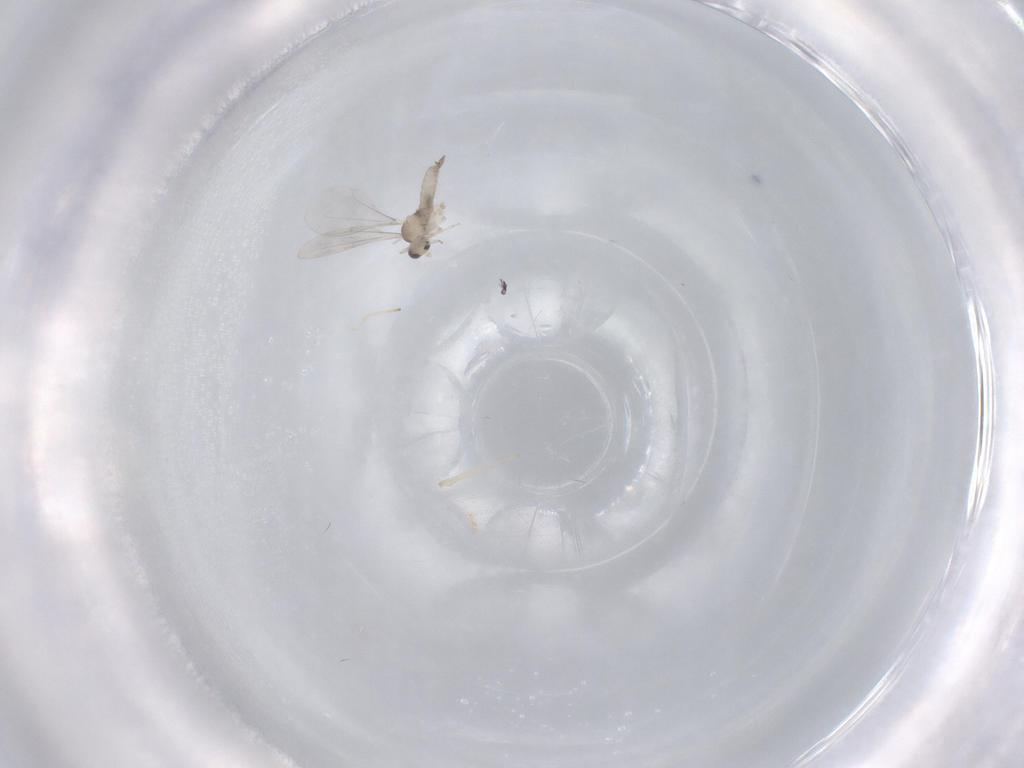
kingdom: Animalia
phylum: Arthropoda
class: Insecta
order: Diptera
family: Cecidomyiidae
